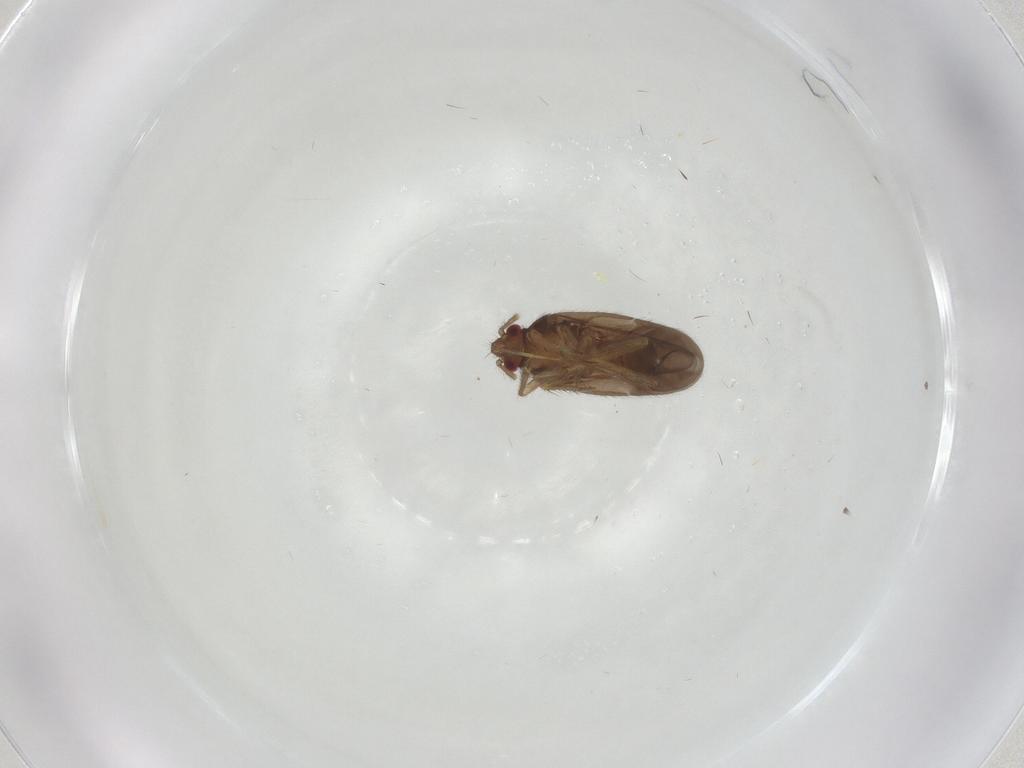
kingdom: Animalia
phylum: Arthropoda
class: Insecta
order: Hemiptera
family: Ceratocombidae
